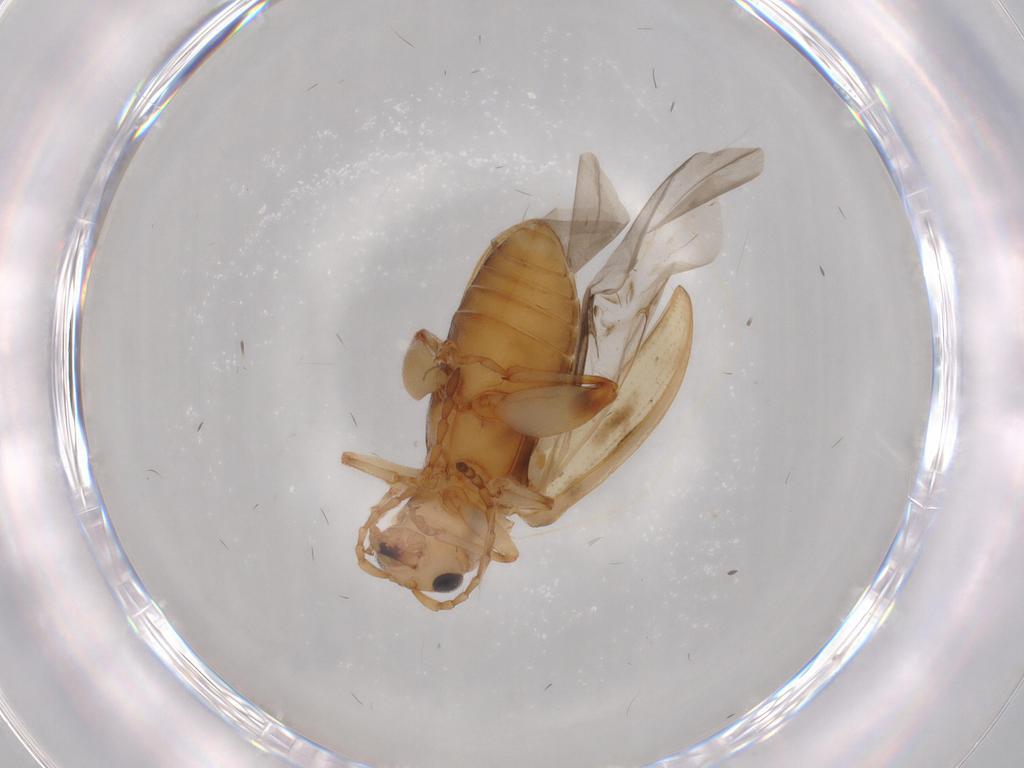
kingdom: Animalia
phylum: Arthropoda
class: Insecta
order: Coleoptera
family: Chrysomelidae
